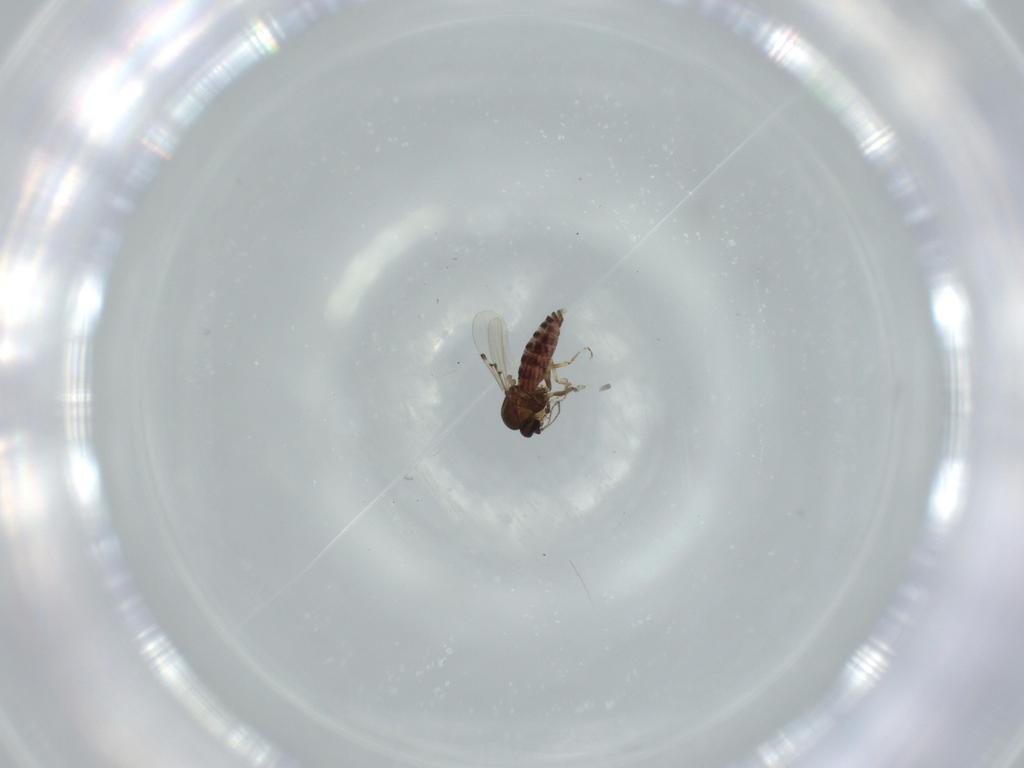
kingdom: Animalia
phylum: Arthropoda
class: Insecta
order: Diptera
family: Ceratopogonidae
